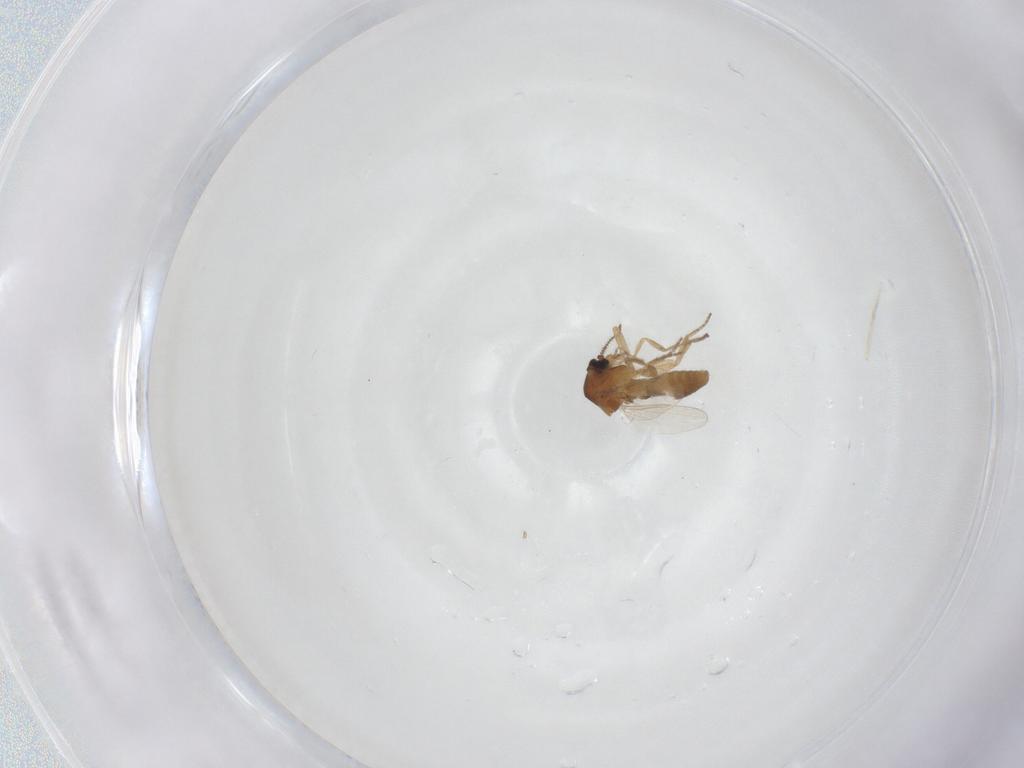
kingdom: Animalia
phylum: Arthropoda
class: Insecta
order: Diptera
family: Ceratopogonidae
